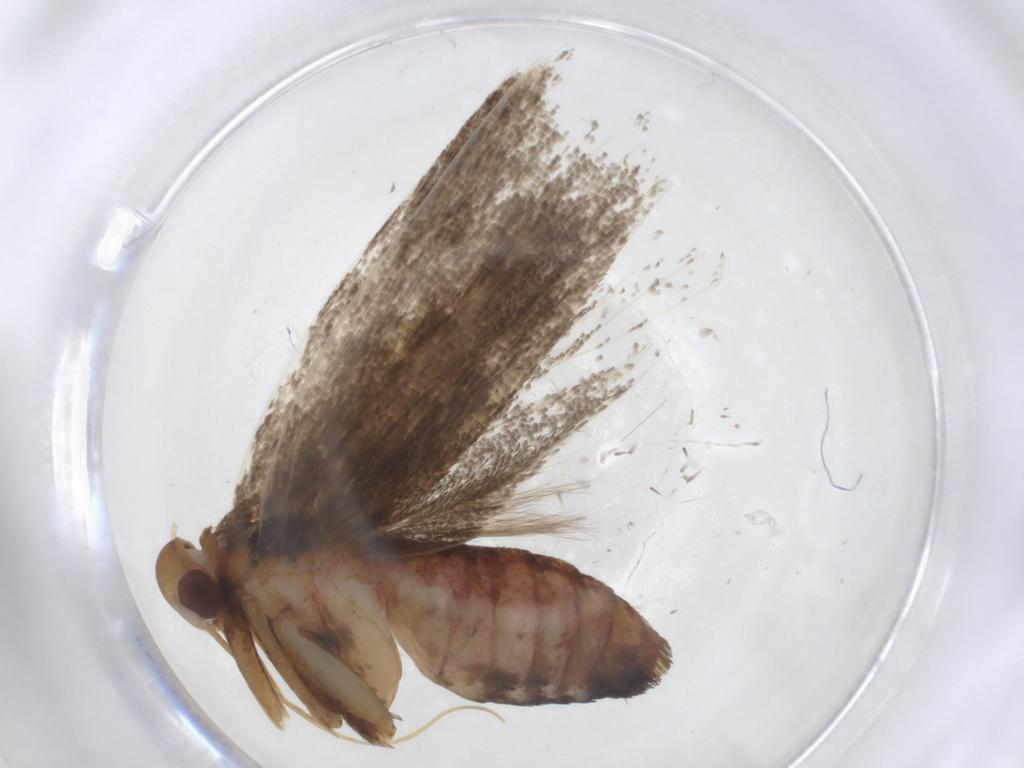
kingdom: Animalia
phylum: Arthropoda
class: Insecta
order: Lepidoptera
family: Lecithoceridae
